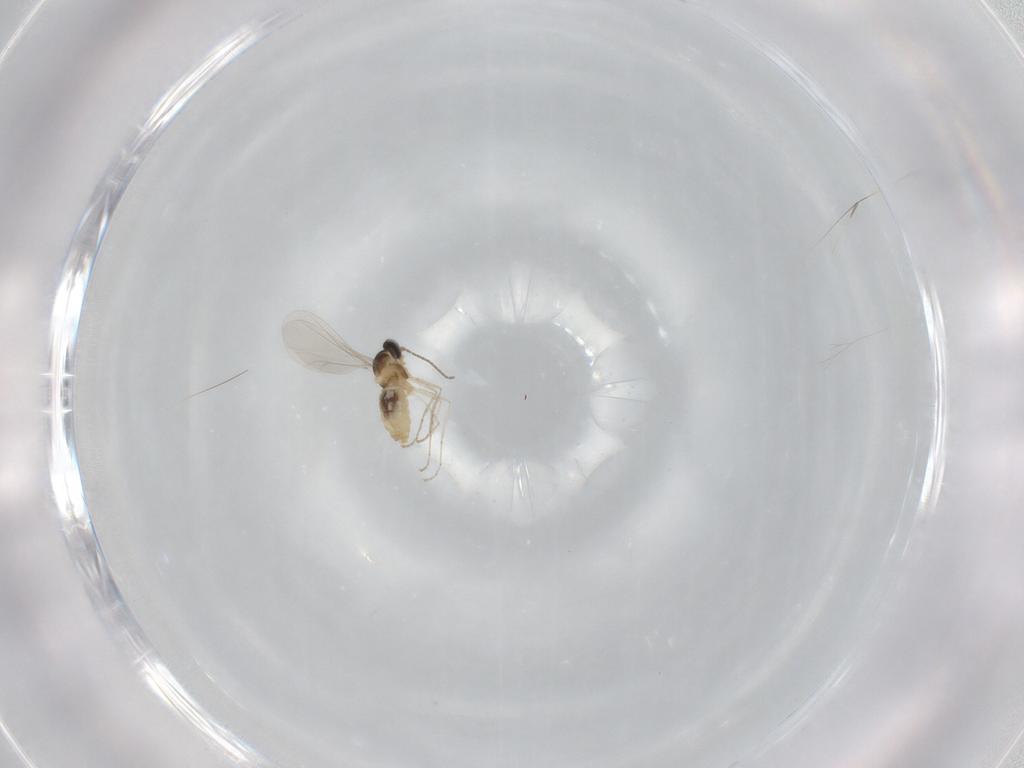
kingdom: Animalia
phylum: Arthropoda
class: Insecta
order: Diptera
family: Cecidomyiidae
